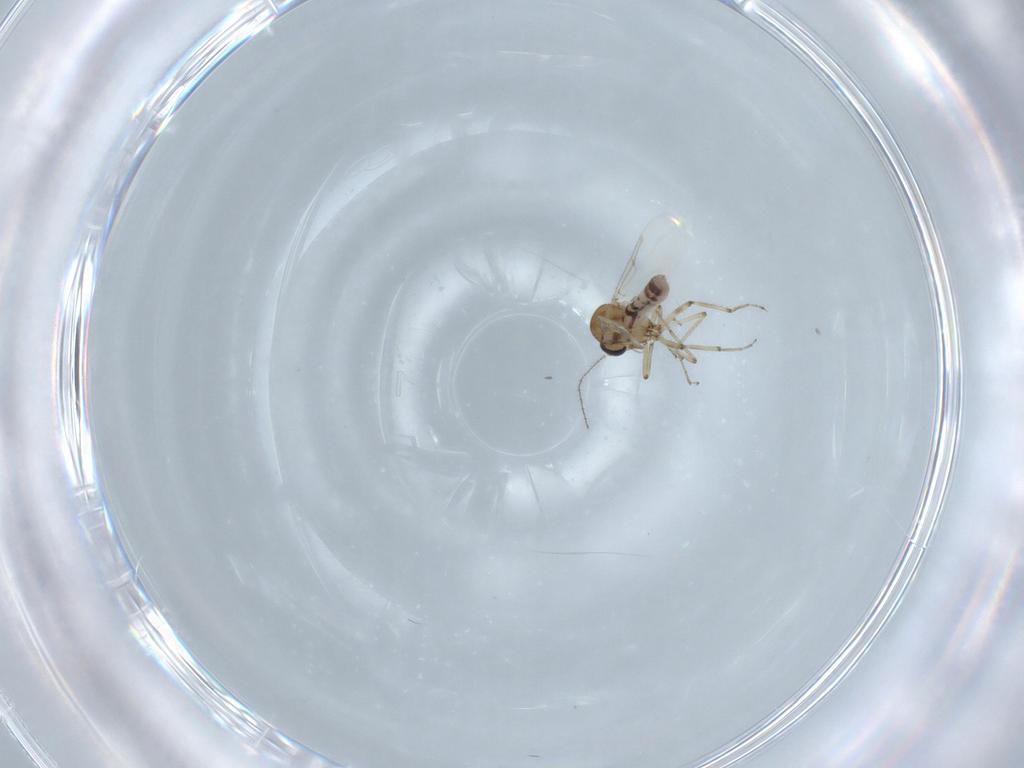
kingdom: Animalia
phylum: Arthropoda
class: Insecta
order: Diptera
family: Ceratopogonidae
